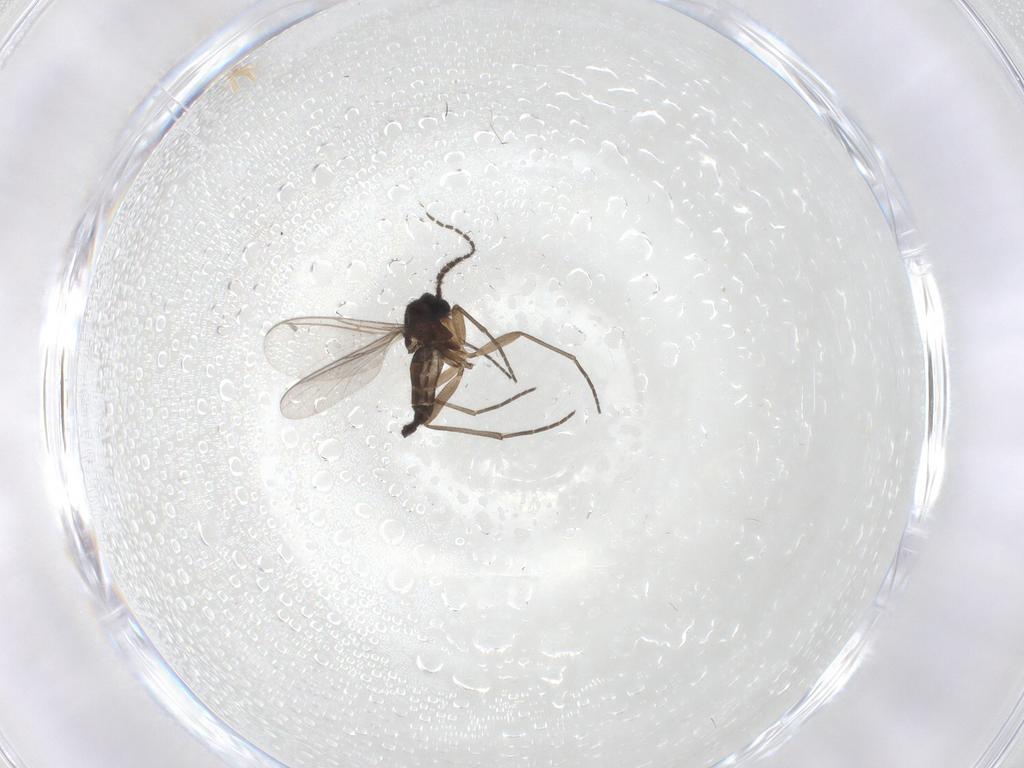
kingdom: Animalia
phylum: Arthropoda
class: Insecta
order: Diptera
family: Sciaridae
